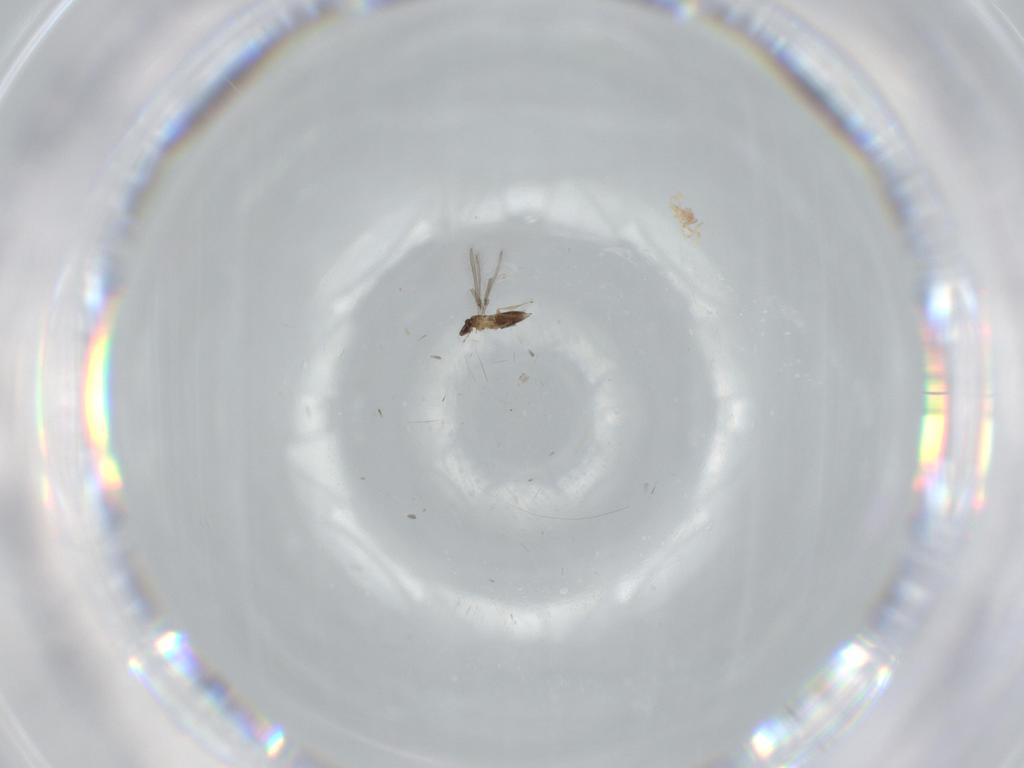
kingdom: Animalia
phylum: Arthropoda
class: Insecta
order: Hymenoptera
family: Mymaridae
